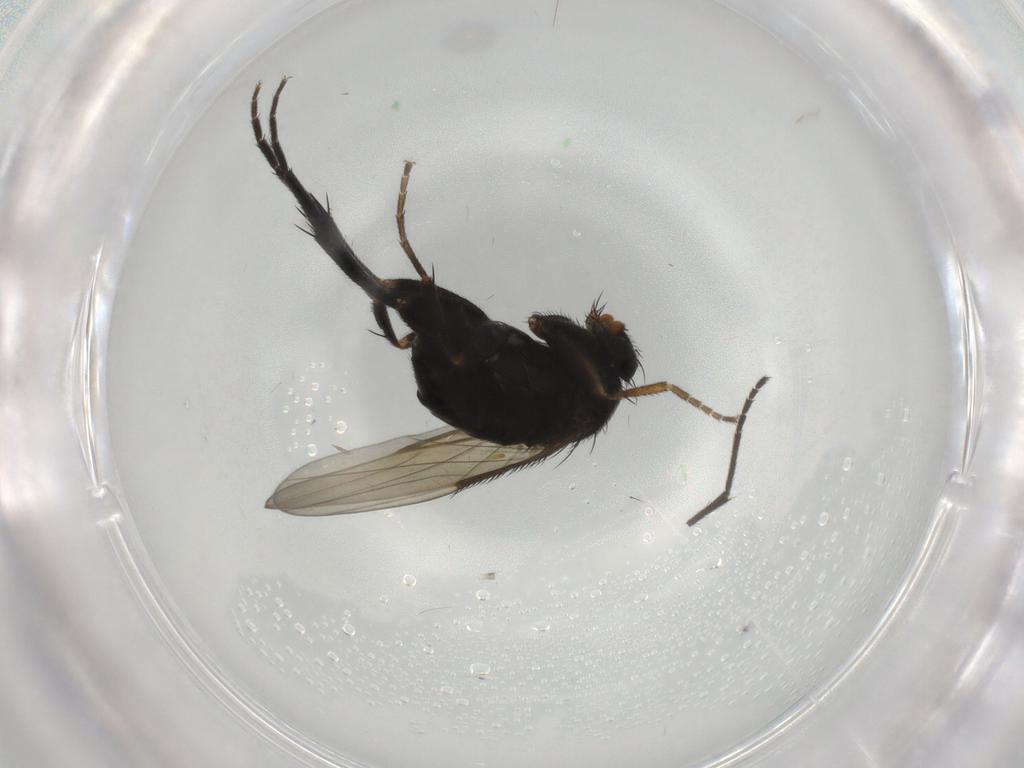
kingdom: Animalia
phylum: Arthropoda
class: Insecta
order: Diptera
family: Phoridae
